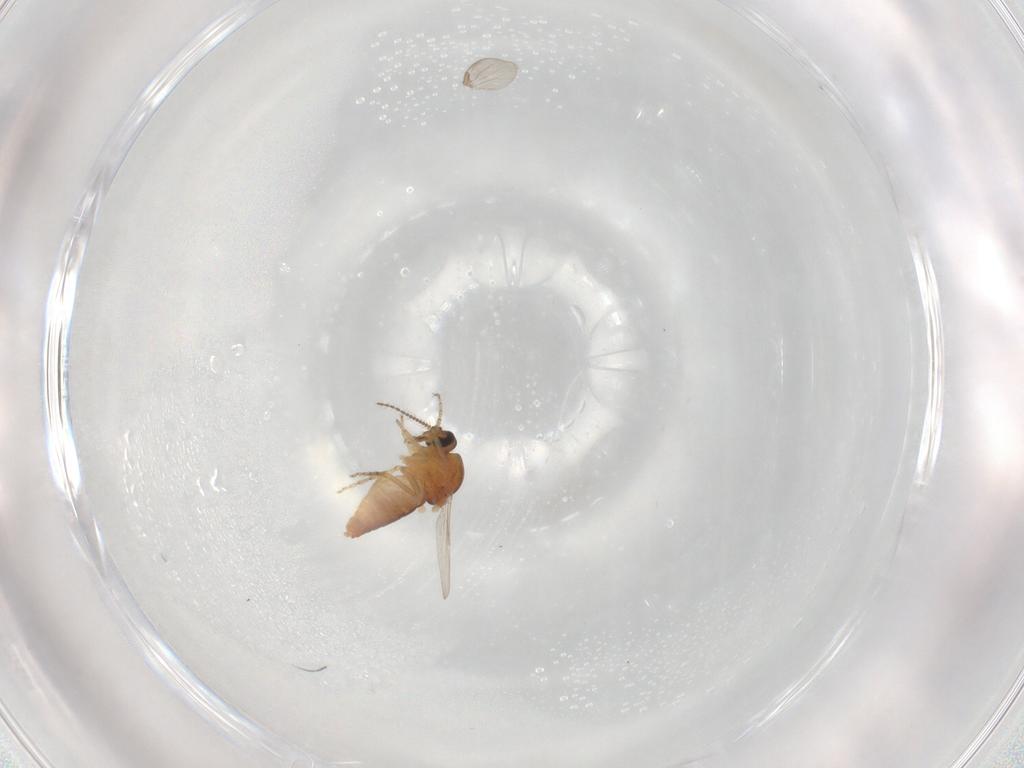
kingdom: Animalia
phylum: Arthropoda
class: Insecta
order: Diptera
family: Ceratopogonidae
